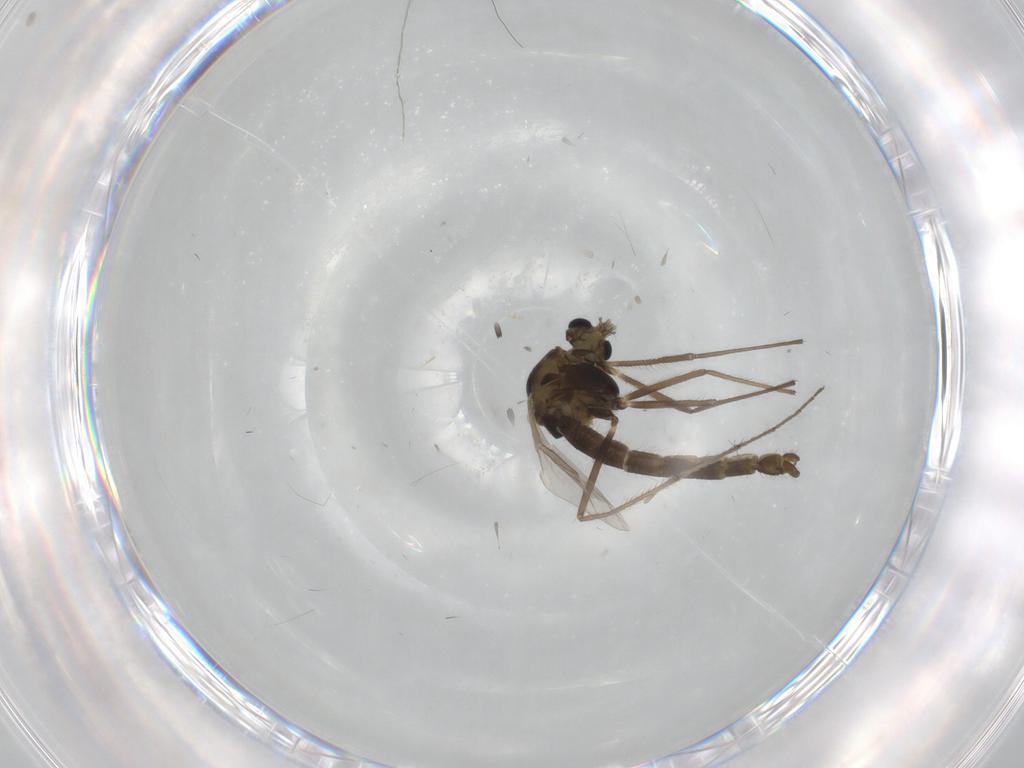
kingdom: Animalia
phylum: Arthropoda
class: Insecta
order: Diptera
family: Chironomidae
